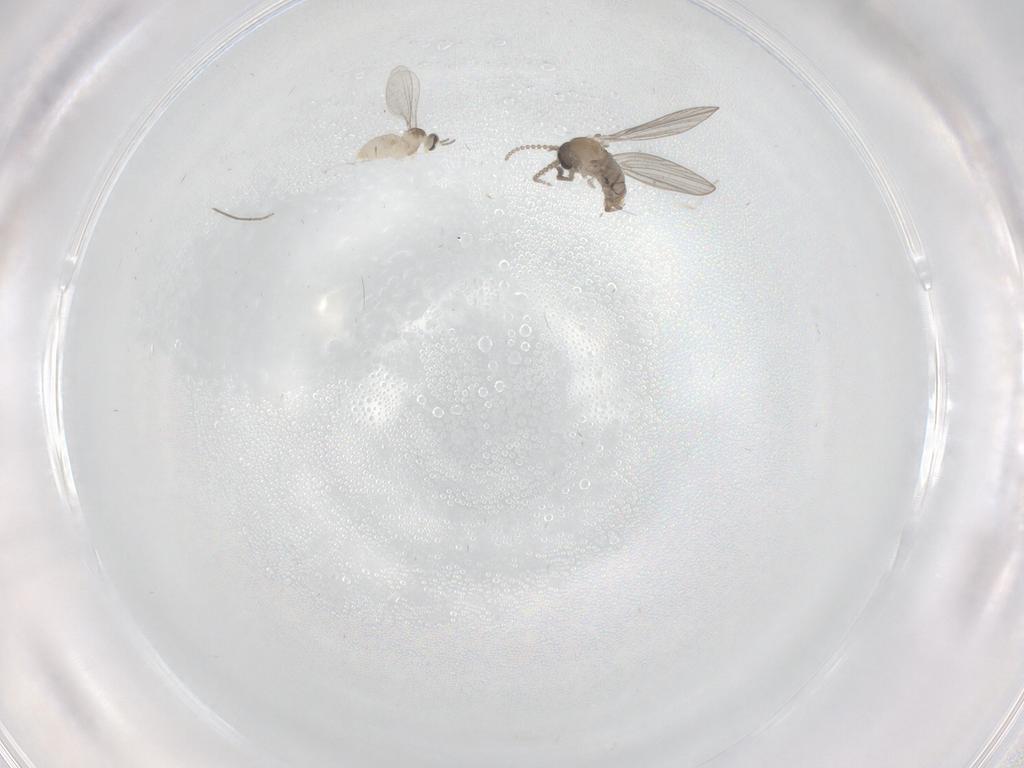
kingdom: Animalia
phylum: Arthropoda
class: Insecta
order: Diptera
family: Psychodidae
